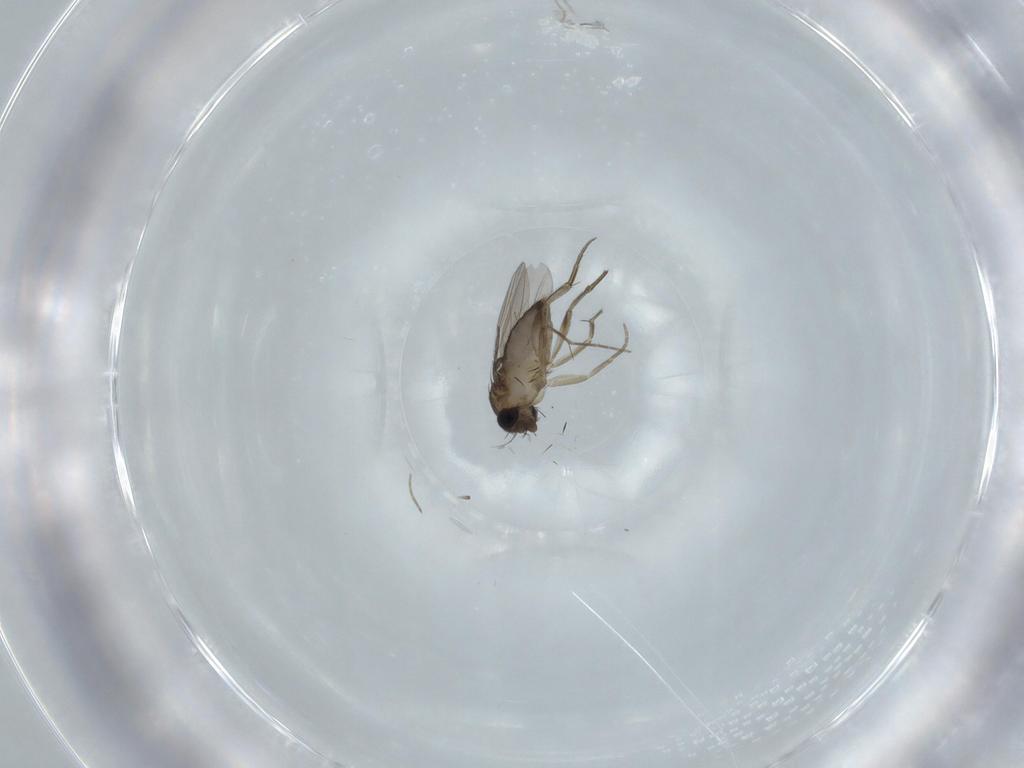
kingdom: Animalia
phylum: Arthropoda
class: Insecta
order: Diptera
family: Phoridae
